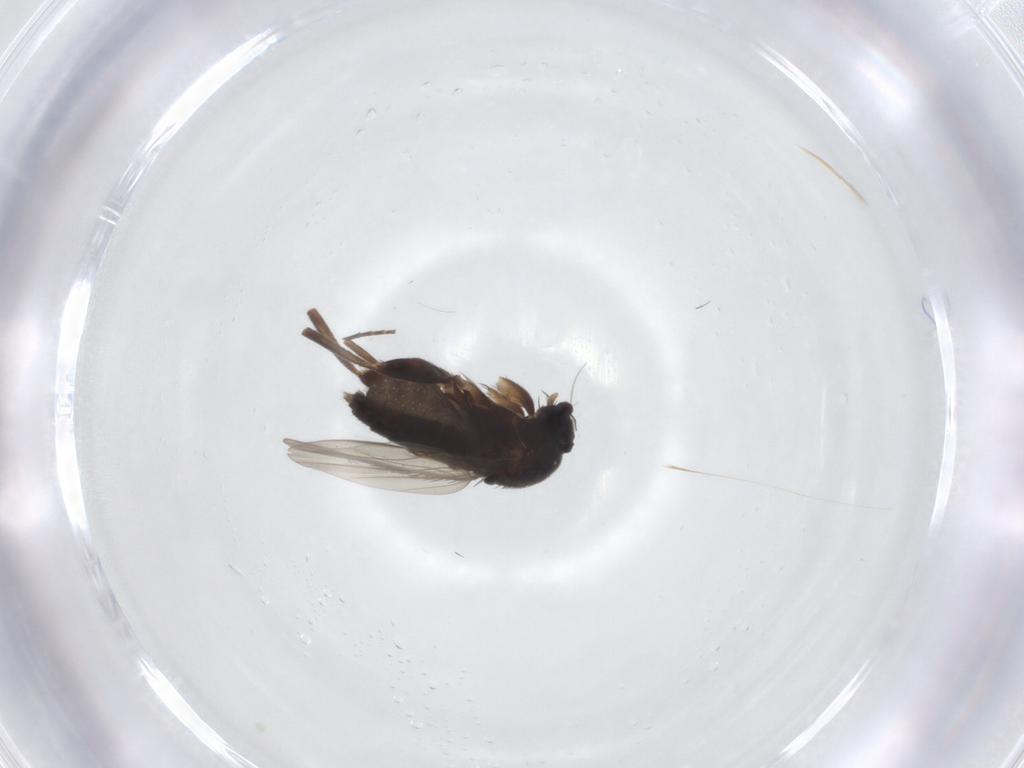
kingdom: Animalia
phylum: Arthropoda
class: Insecta
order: Diptera
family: Phoridae
